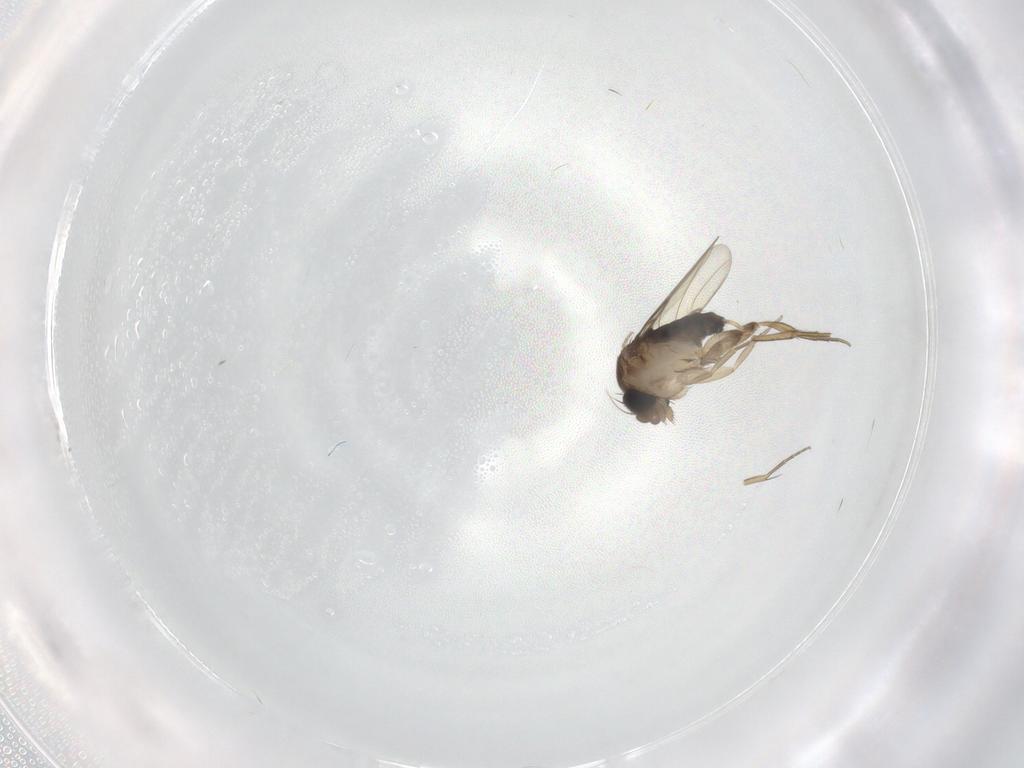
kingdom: Animalia
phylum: Arthropoda
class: Insecta
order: Diptera
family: Phoridae
